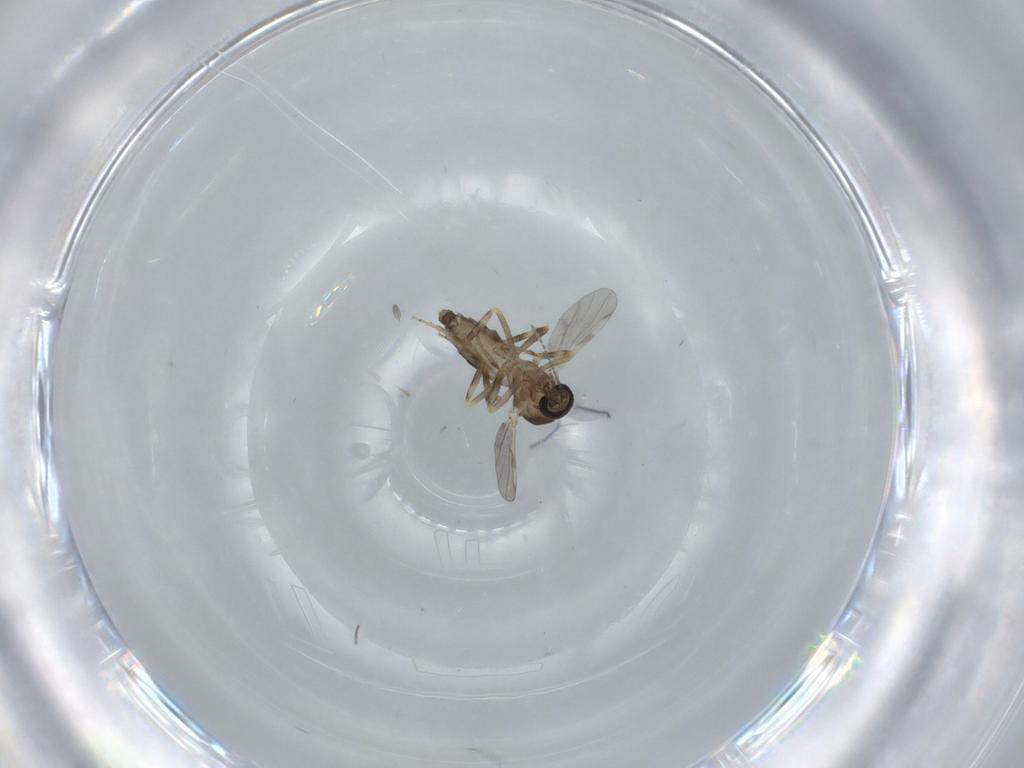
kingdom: Animalia
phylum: Arthropoda
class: Insecta
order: Diptera
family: Ceratopogonidae
